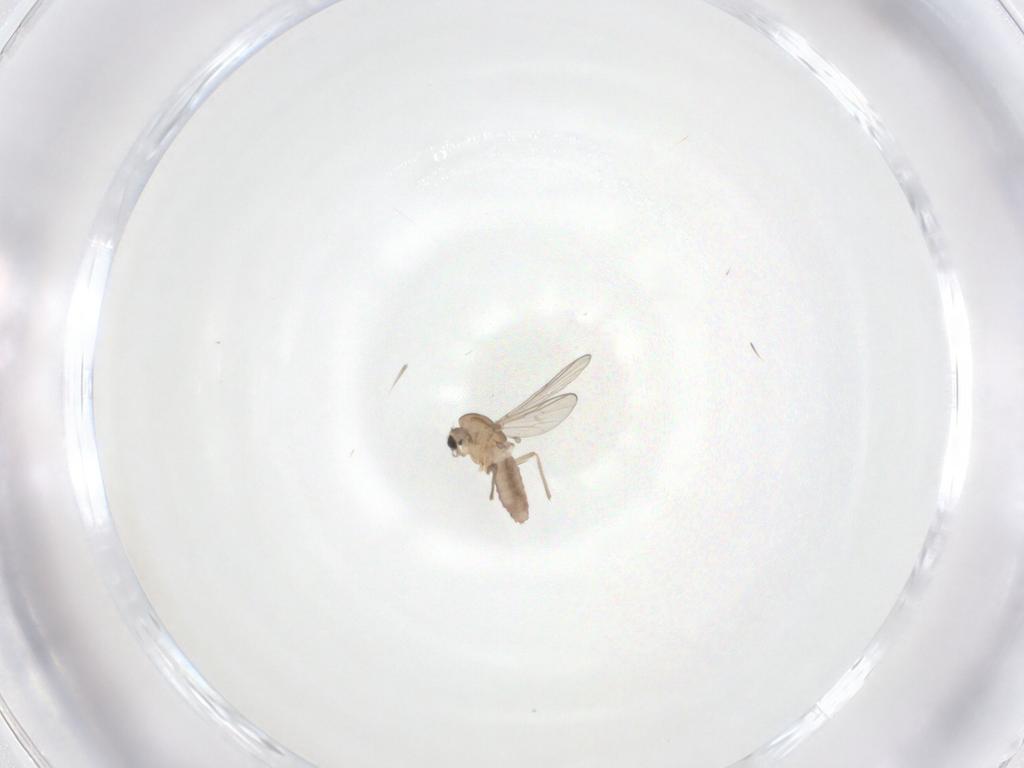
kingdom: Animalia
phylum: Arthropoda
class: Insecta
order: Diptera
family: Chironomidae
